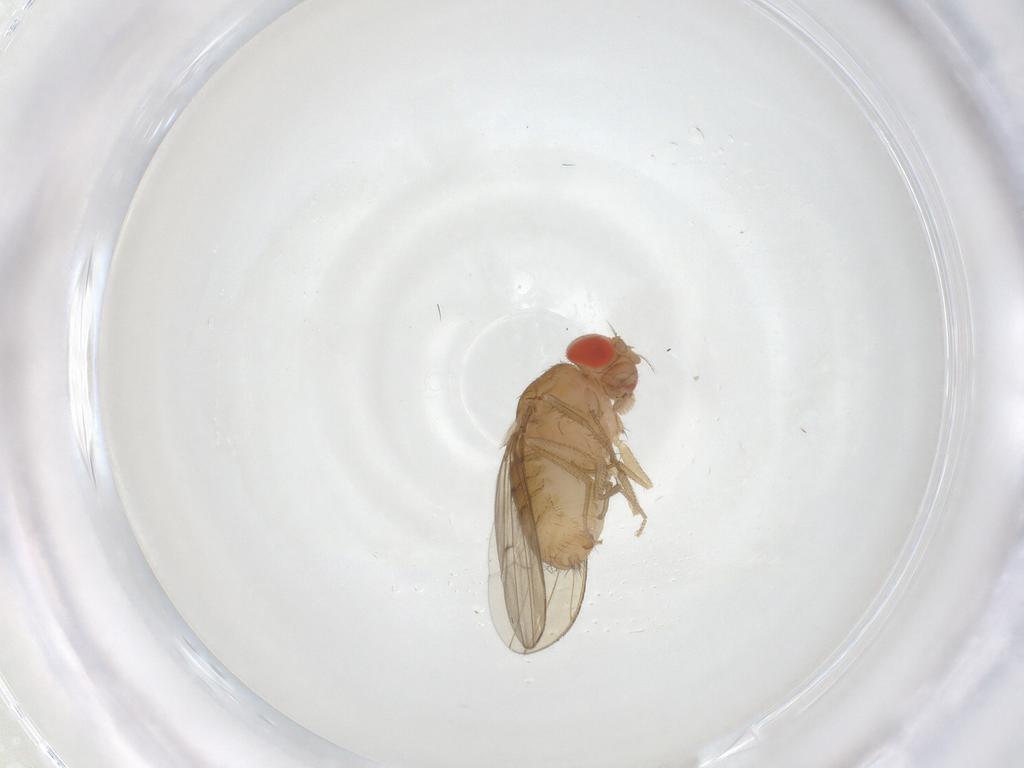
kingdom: Animalia
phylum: Arthropoda
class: Insecta
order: Diptera
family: Drosophilidae
